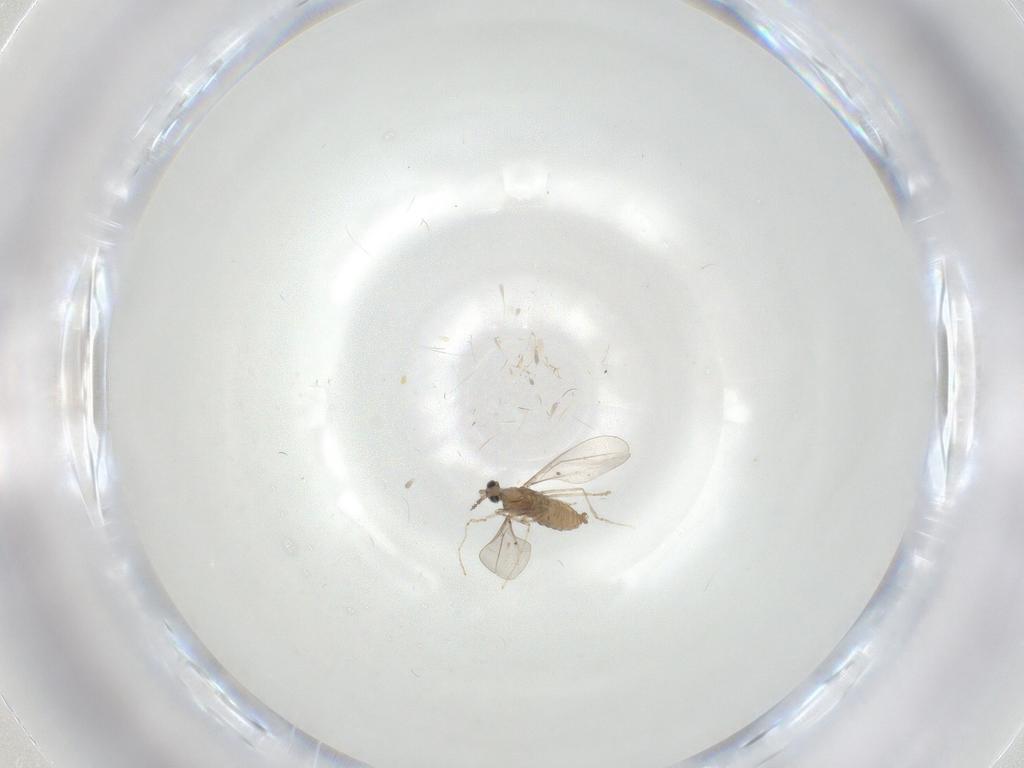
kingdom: Animalia
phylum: Arthropoda
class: Insecta
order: Diptera
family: Cecidomyiidae
